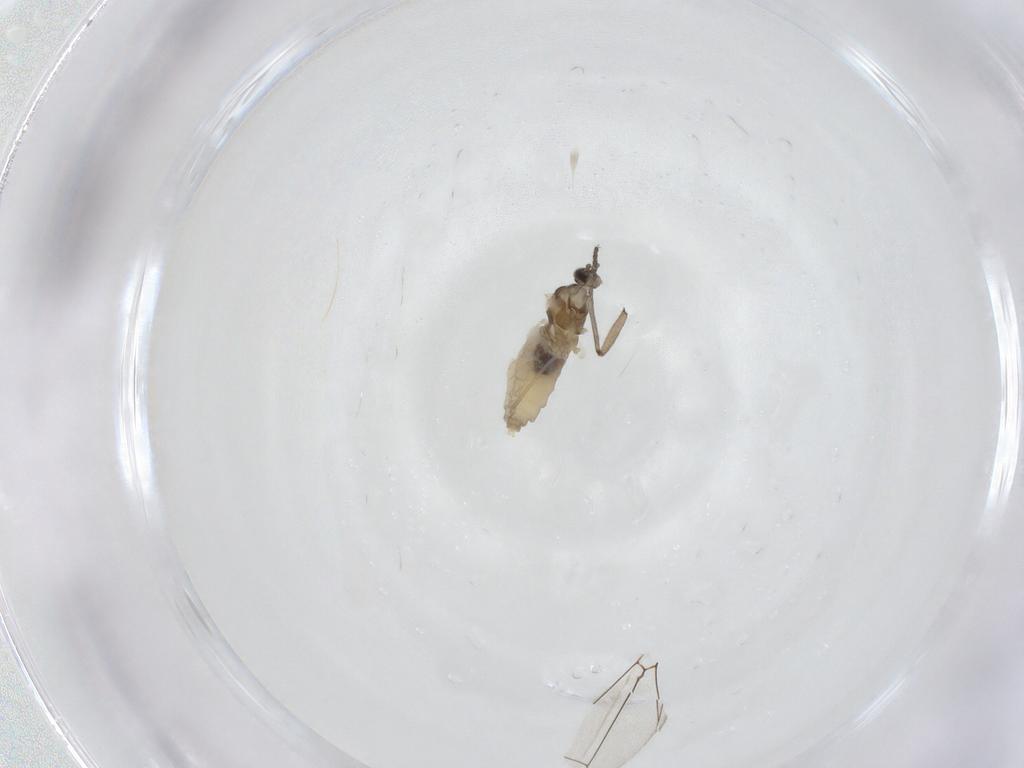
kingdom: Animalia
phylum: Arthropoda
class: Insecta
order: Diptera
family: Cecidomyiidae
